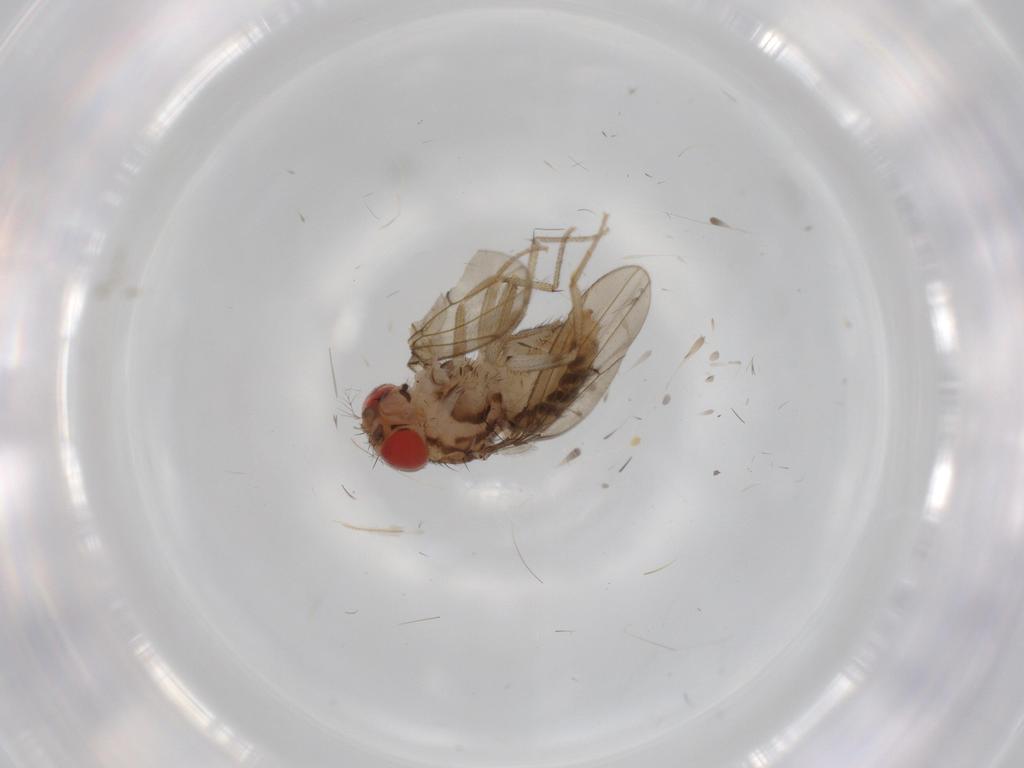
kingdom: Animalia
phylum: Arthropoda
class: Insecta
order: Diptera
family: Drosophilidae
